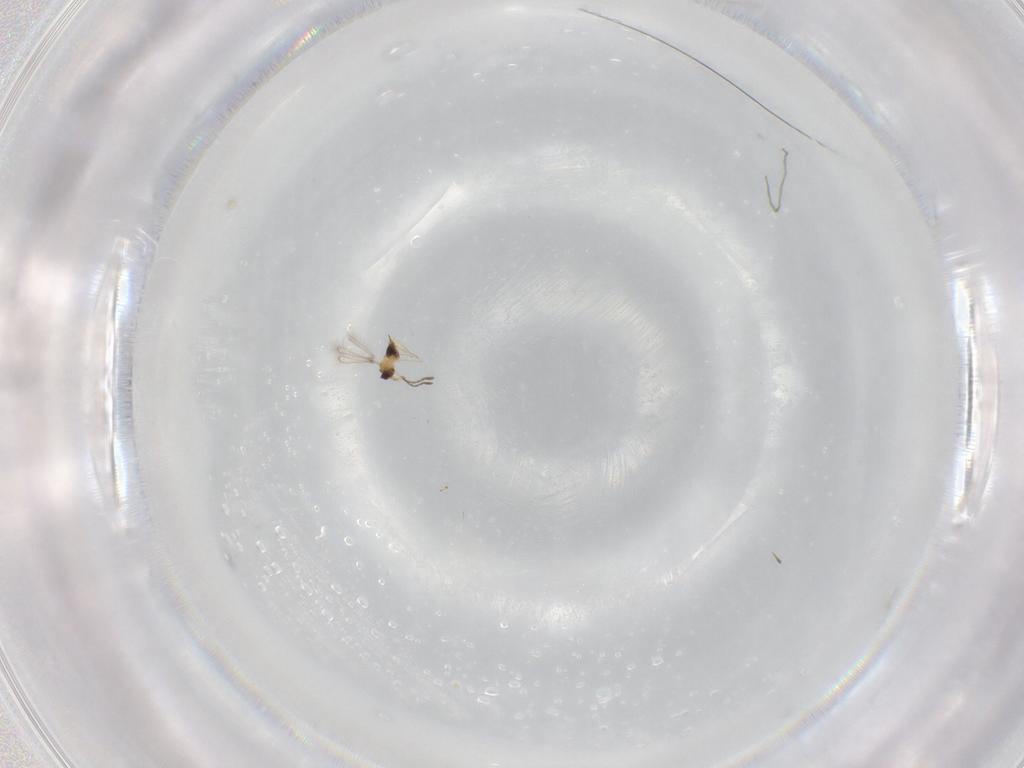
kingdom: Animalia
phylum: Arthropoda
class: Insecta
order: Hymenoptera
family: Mymaridae
